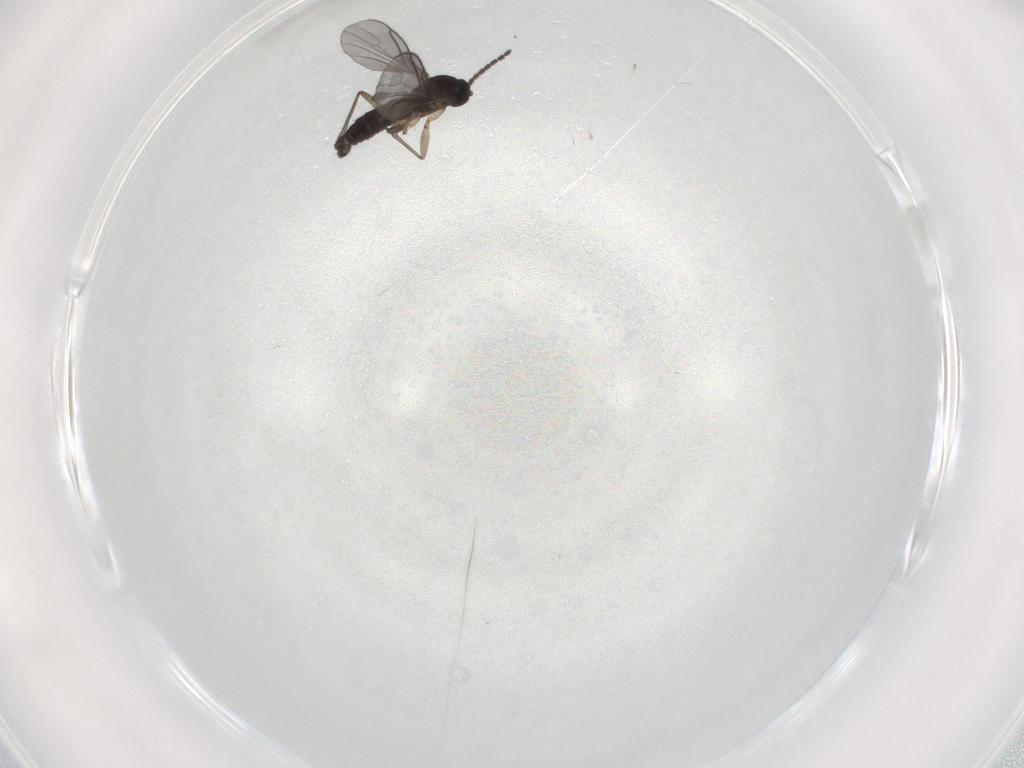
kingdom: Animalia
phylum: Arthropoda
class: Insecta
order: Diptera
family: Sciaridae
